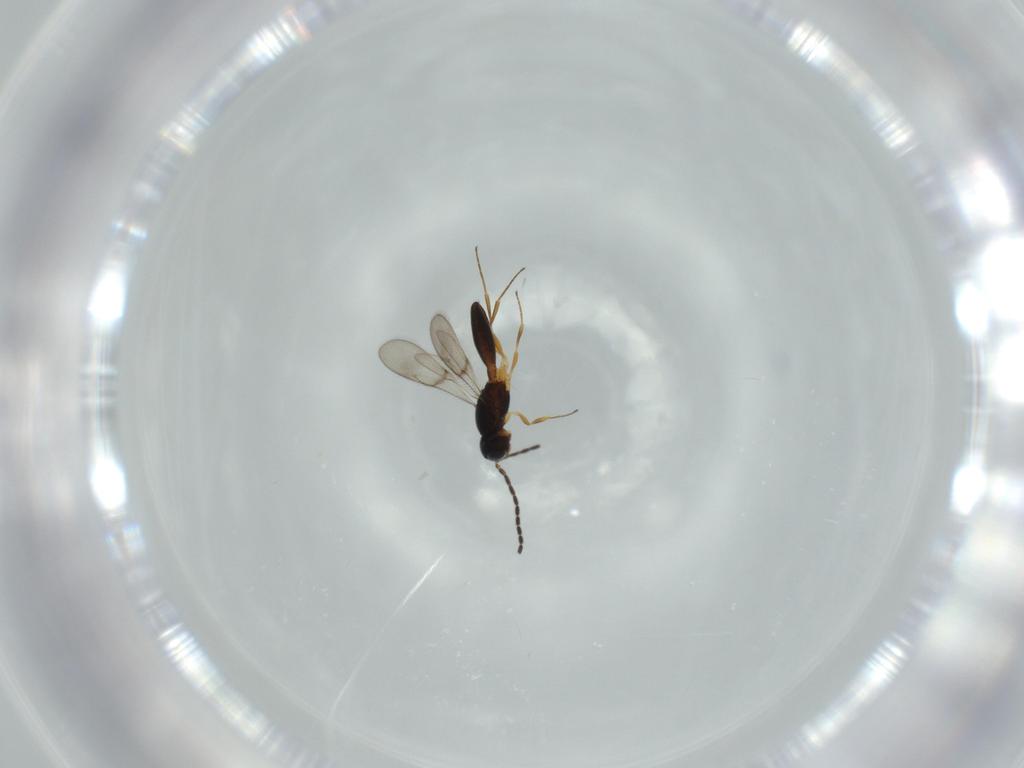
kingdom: Animalia
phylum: Arthropoda
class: Insecta
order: Hymenoptera
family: Scelionidae
